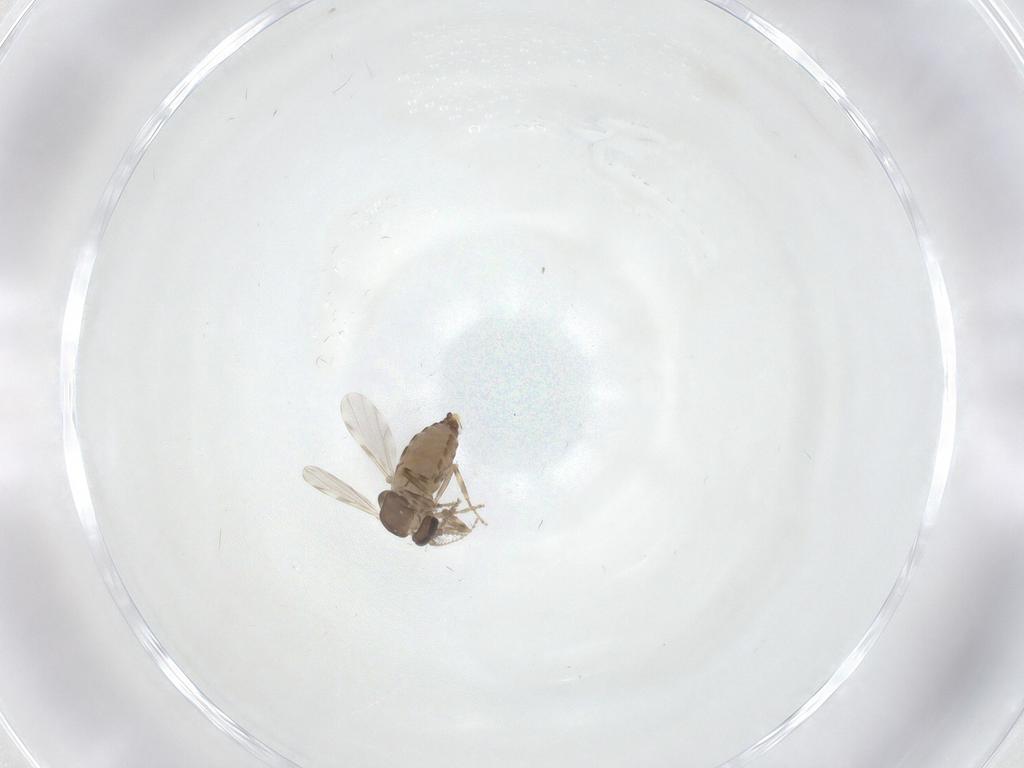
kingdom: Animalia
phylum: Arthropoda
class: Insecta
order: Diptera
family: Ceratopogonidae
